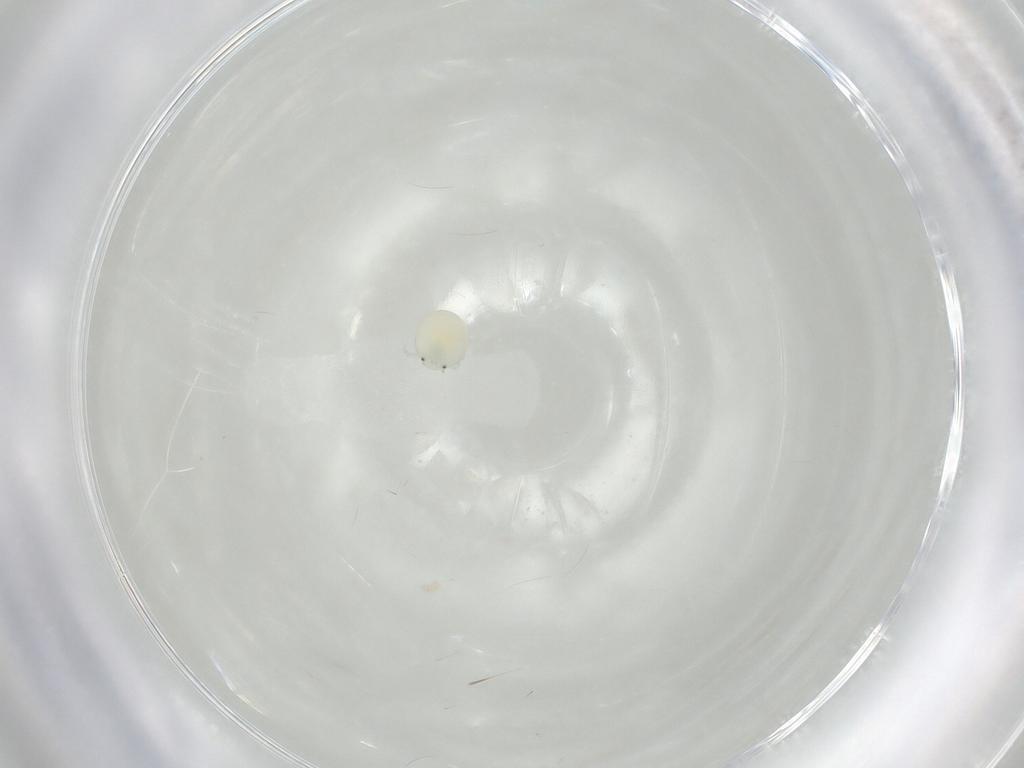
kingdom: Animalia
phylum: Arthropoda
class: Arachnida
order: Trombidiformes
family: Arrenuridae
